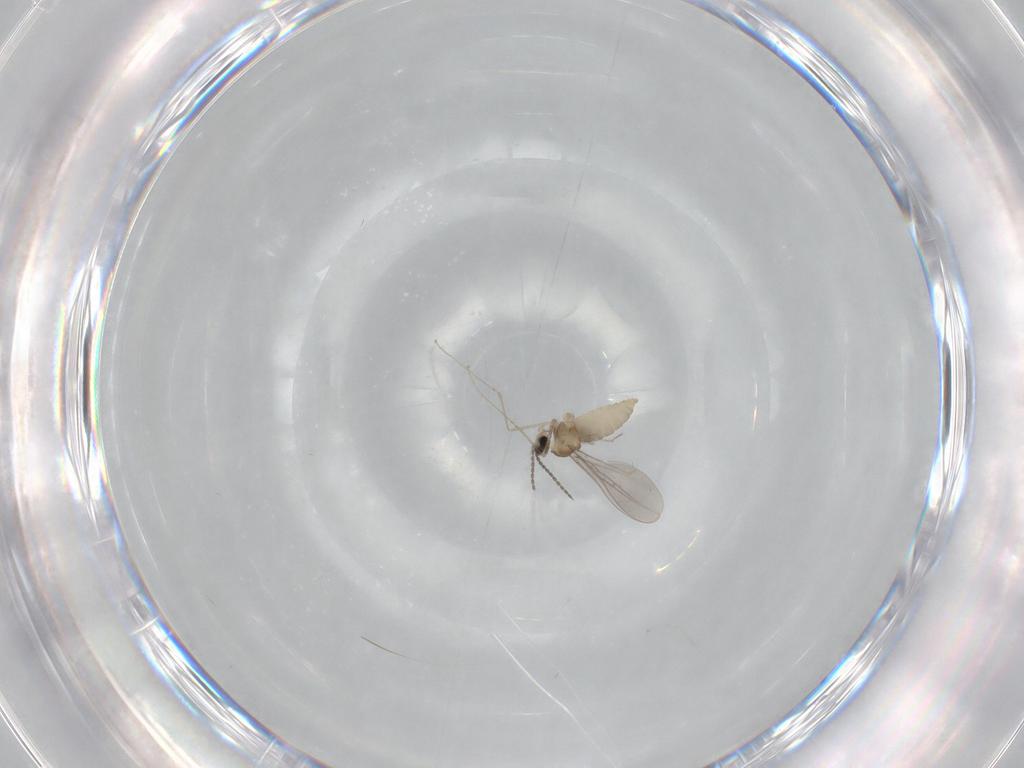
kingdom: Animalia
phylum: Arthropoda
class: Insecta
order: Diptera
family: Cecidomyiidae
